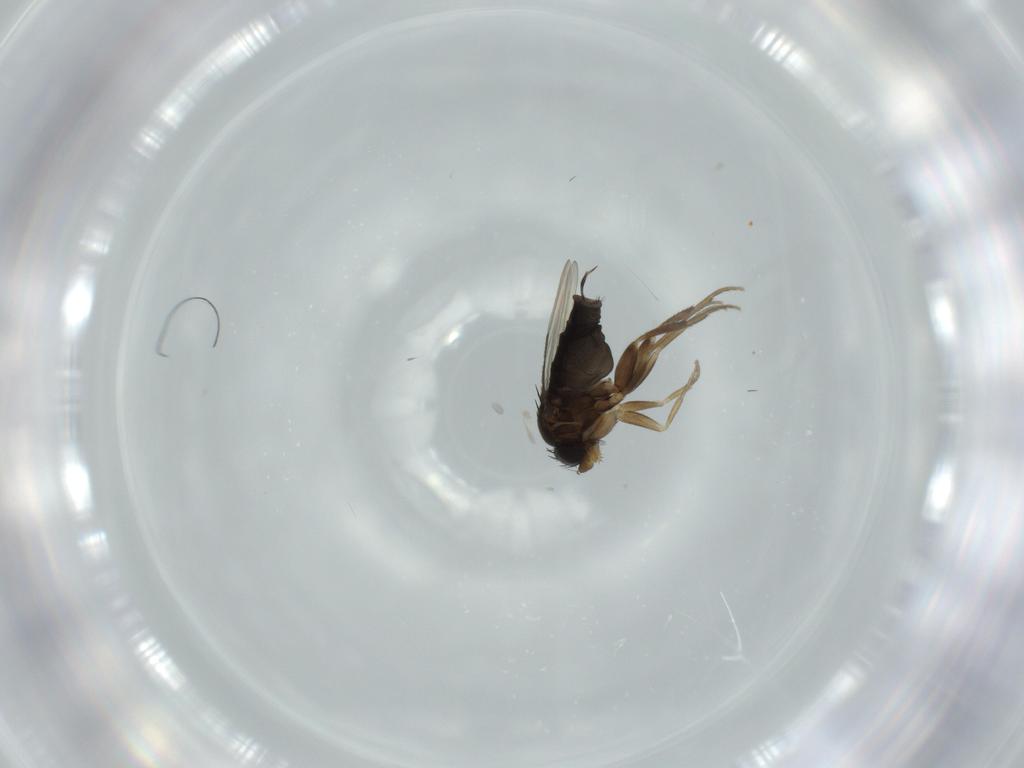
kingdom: Animalia
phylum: Arthropoda
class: Insecta
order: Diptera
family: Phoridae
